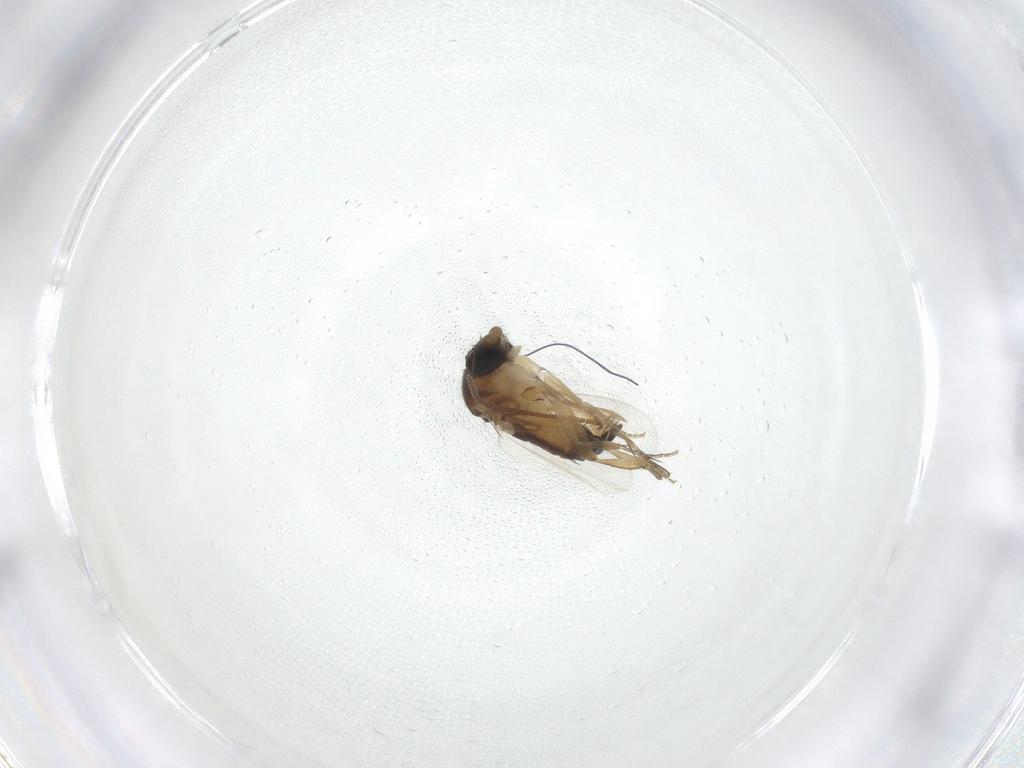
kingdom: Animalia
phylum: Arthropoda
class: Insecta
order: Diptera
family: Phoridae
